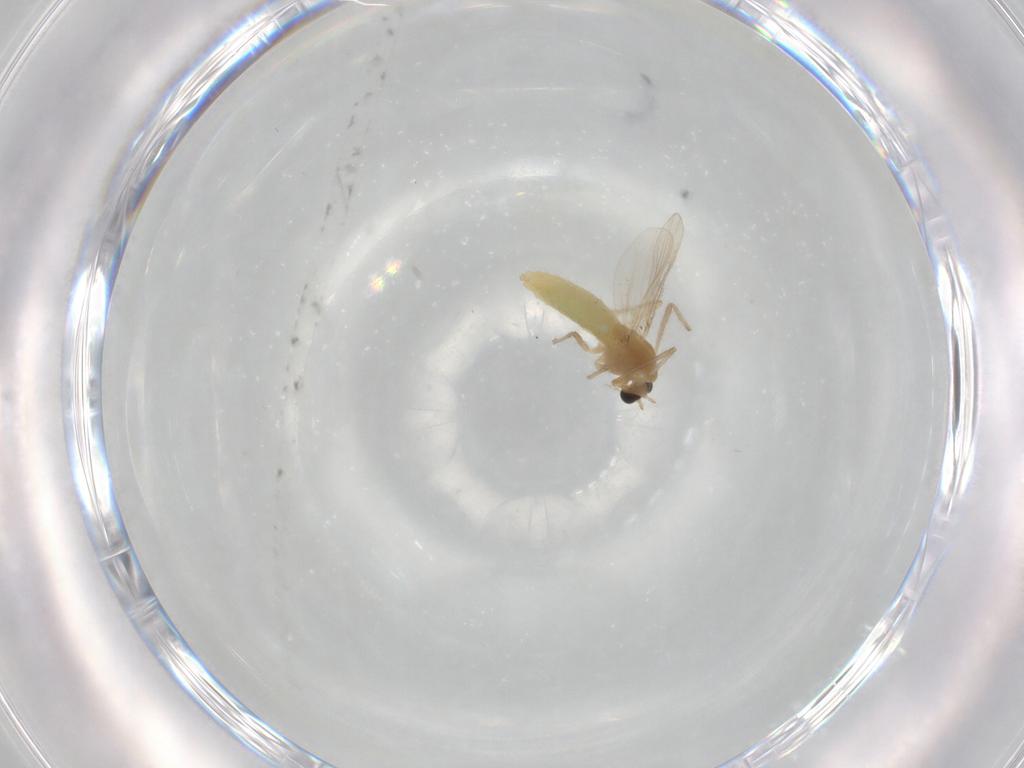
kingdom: Animalia
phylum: Arthropoda
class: Insecta
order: Diptera
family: Chironomidae
